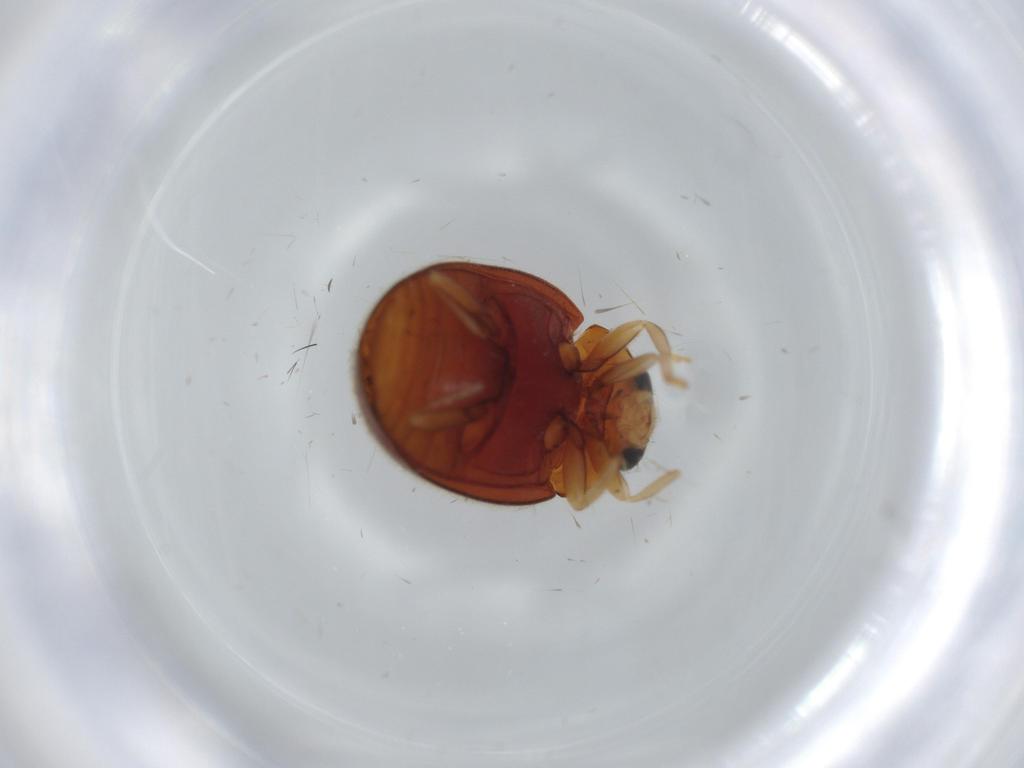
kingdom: Animalia
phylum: Arthropoda
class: Insecta
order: Coleoptera
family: Coccinellidae
